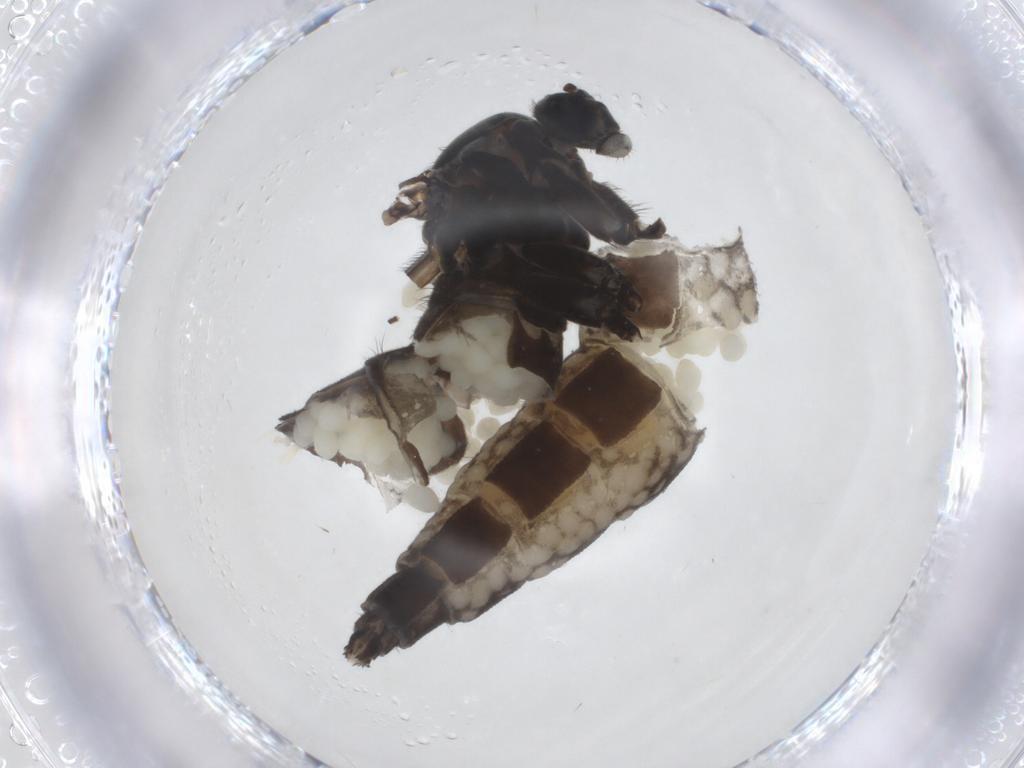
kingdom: Animalia
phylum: Arthropoda
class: Insecta
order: Diptera
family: Sciaridae
